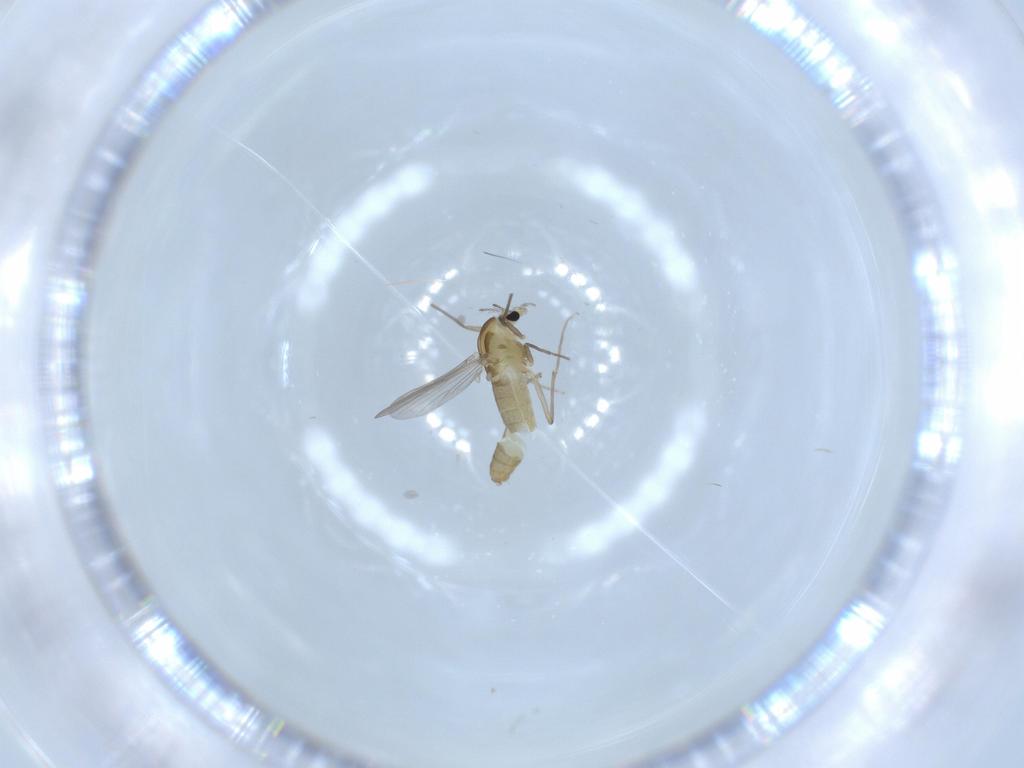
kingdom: Animalia
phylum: Arthropoda
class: Insecta
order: Diptera
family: Chironomidae
